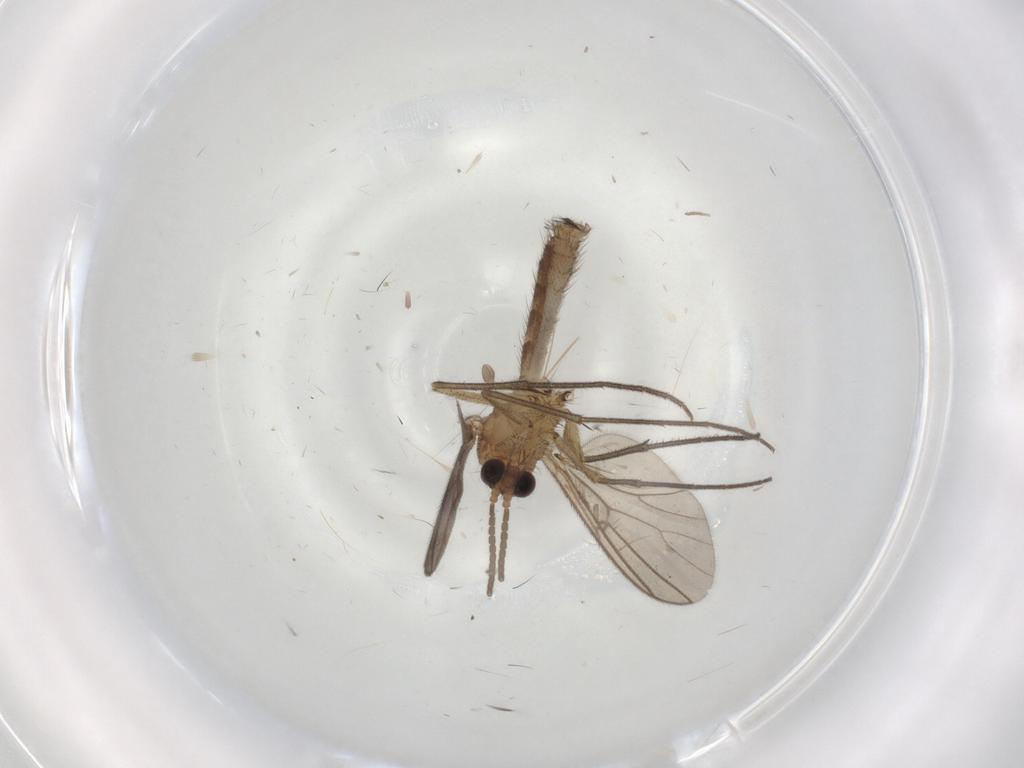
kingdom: Animalia
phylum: Arthropoda
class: Insecta
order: Diptera
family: Mycetophilidae
